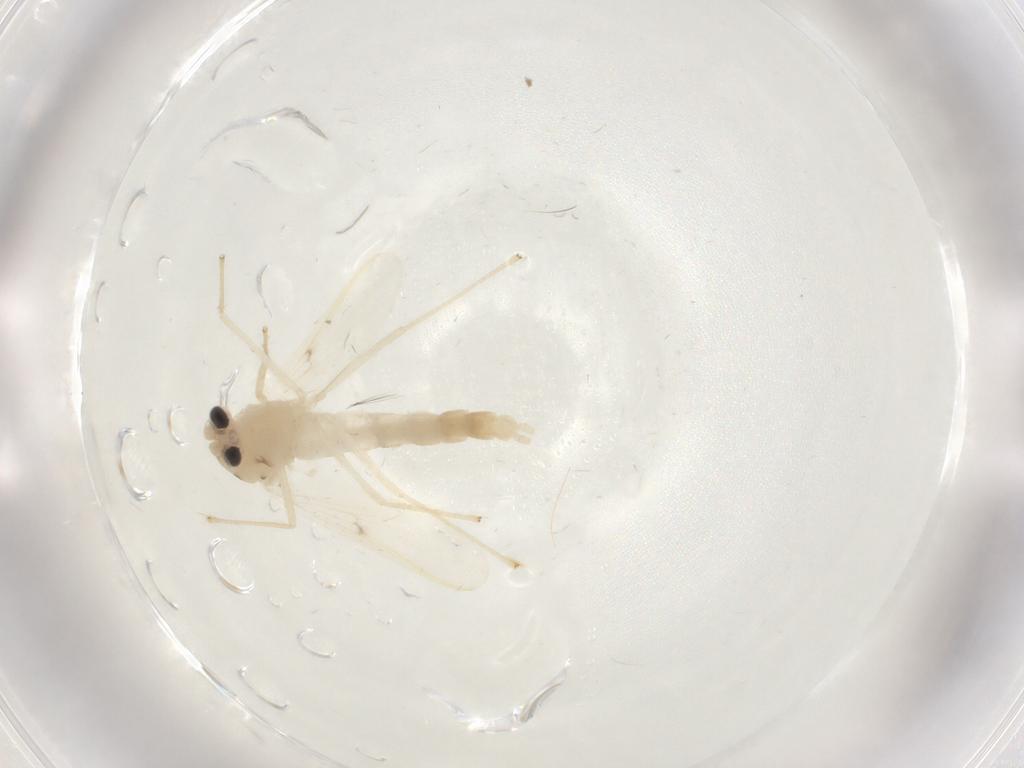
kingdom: Animalia
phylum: Arthropoda
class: Insecta
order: Diptera
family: Chironomidae
